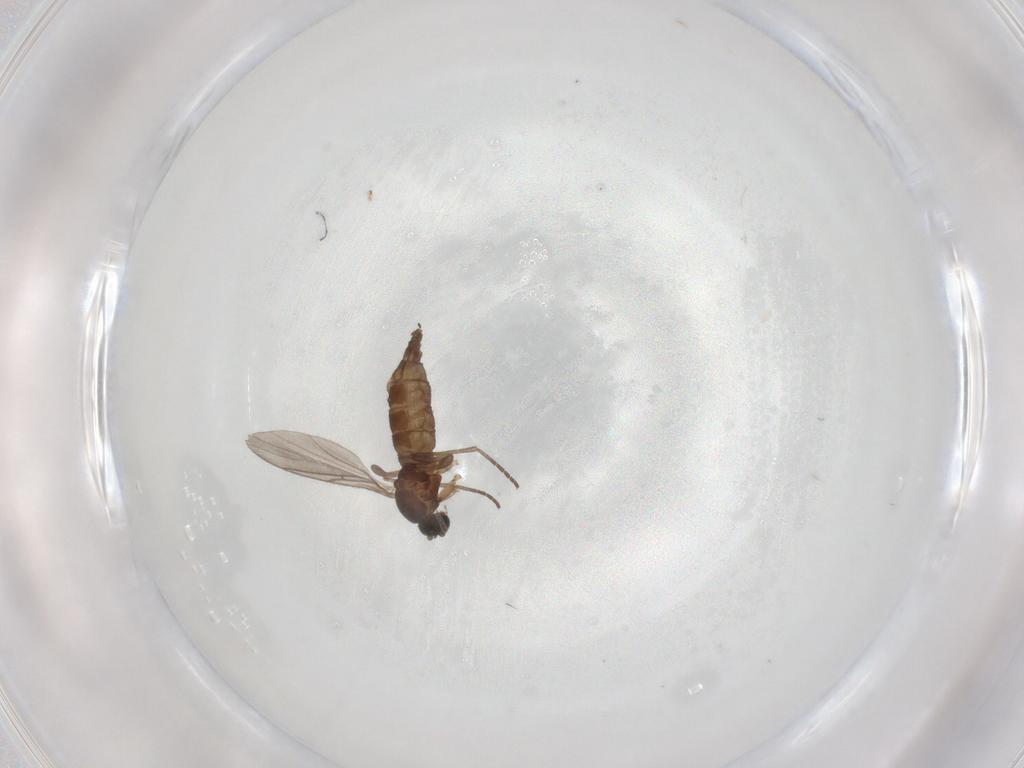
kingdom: Animalia
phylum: Arthropoda
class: Insecta
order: Diptera
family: Sciaridae
